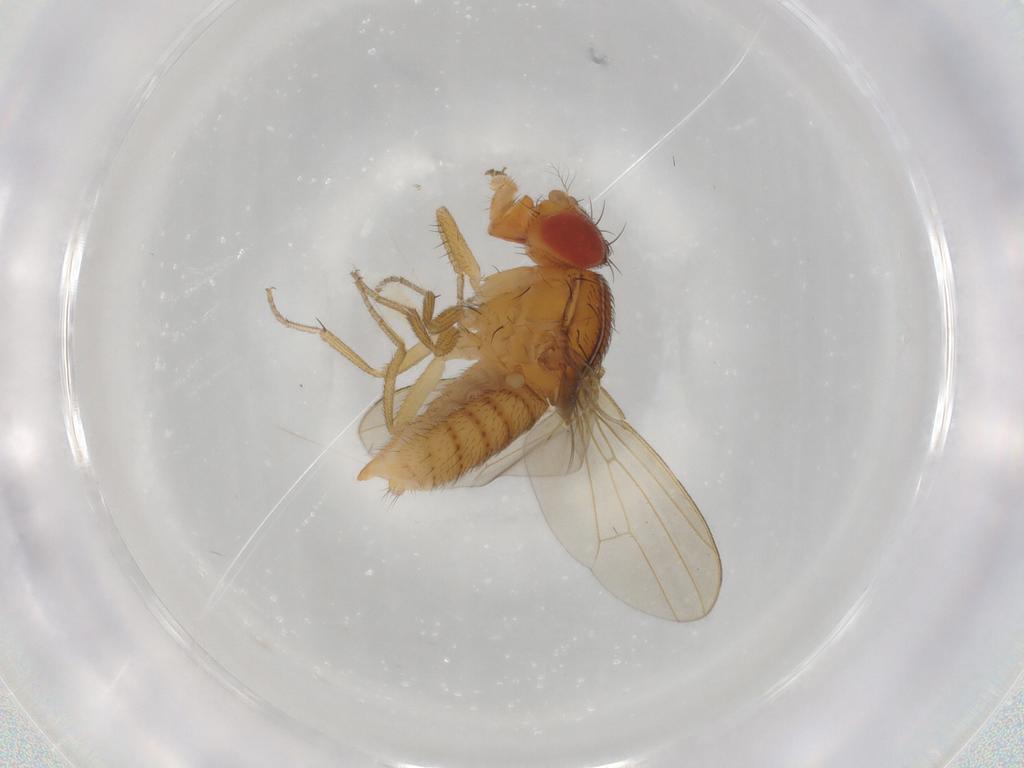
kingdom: Animalia
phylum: Arthropoda
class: Insecta
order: Diptera
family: Drosophilidae
